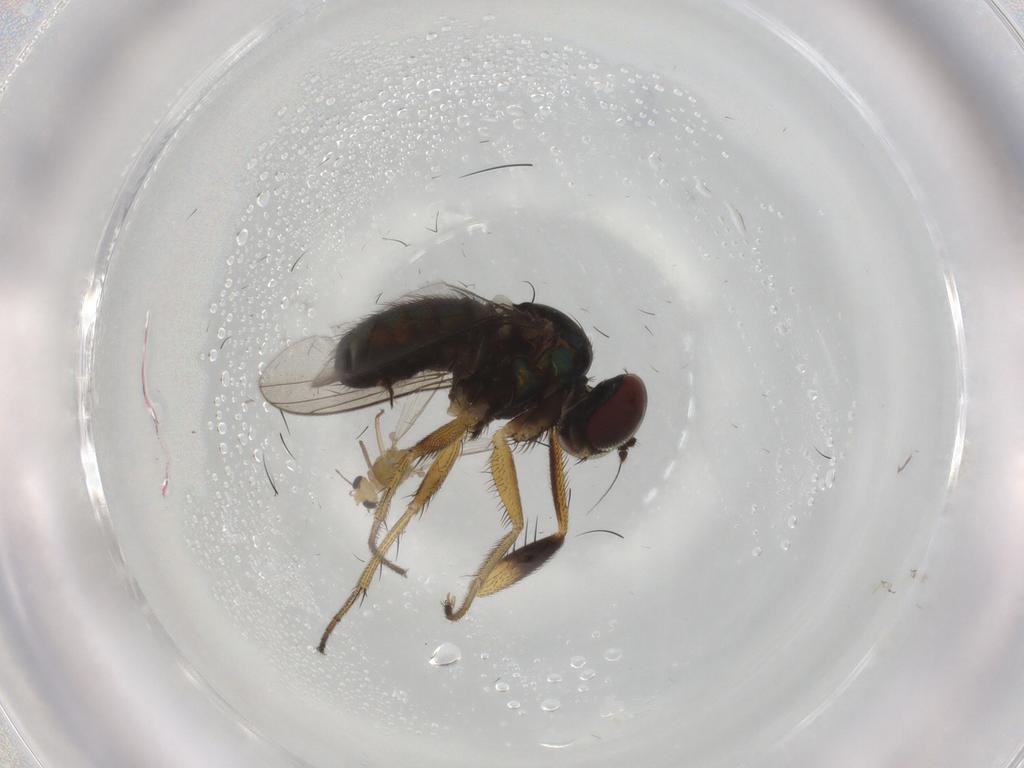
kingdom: Animalia
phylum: Arthropoda
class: Insecta
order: Diptera
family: Chironomidae
